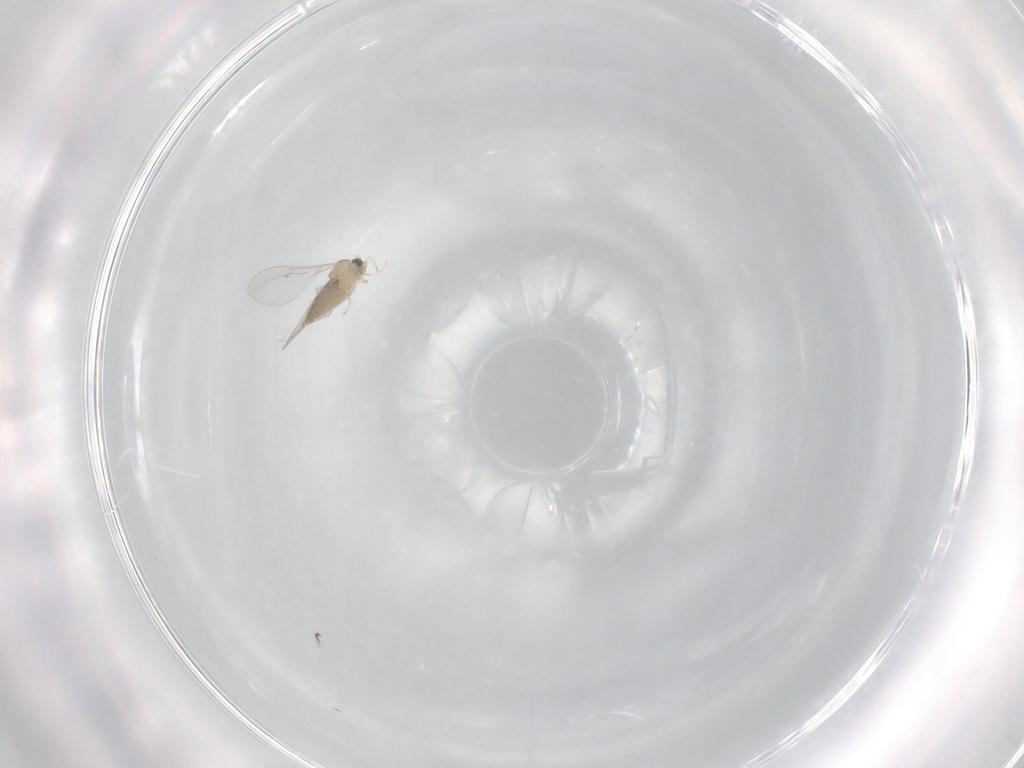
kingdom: Animalia
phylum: Arthropoda
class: Insecta
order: Diptera
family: Cecidomyiidae
